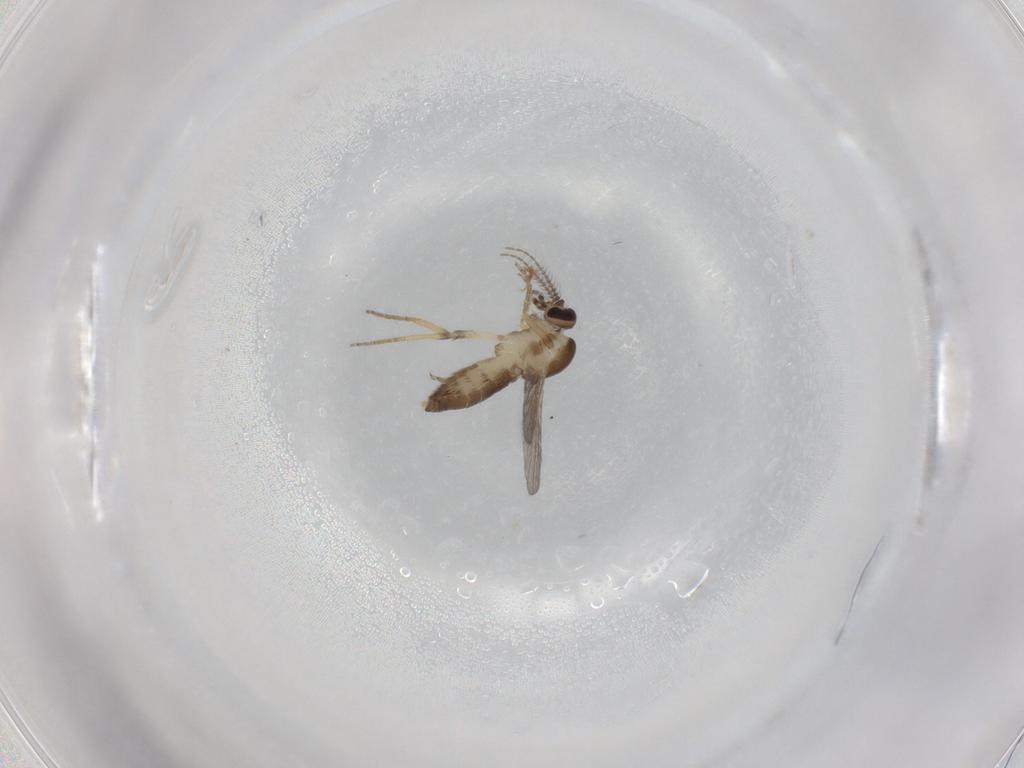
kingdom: Animalia
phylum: Arthropoda
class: Insecta
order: Diptera
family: Ceratopogonidae
